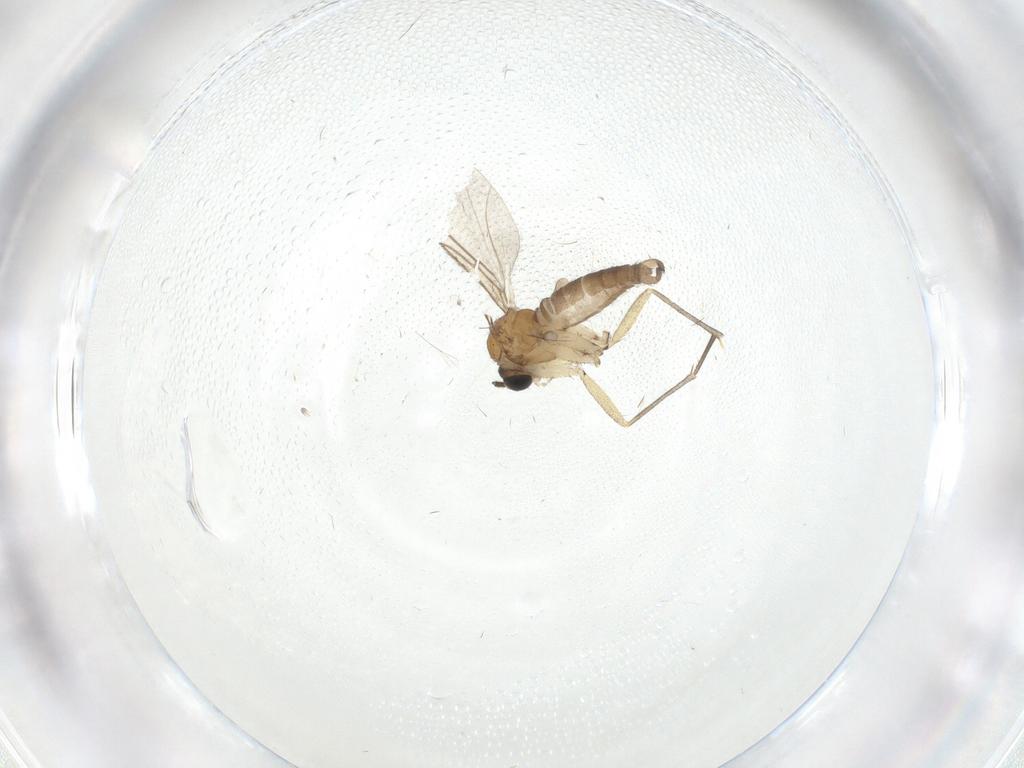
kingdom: Animalia
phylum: Arthropoda
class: Insecta
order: Diptera
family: Sciaridae
